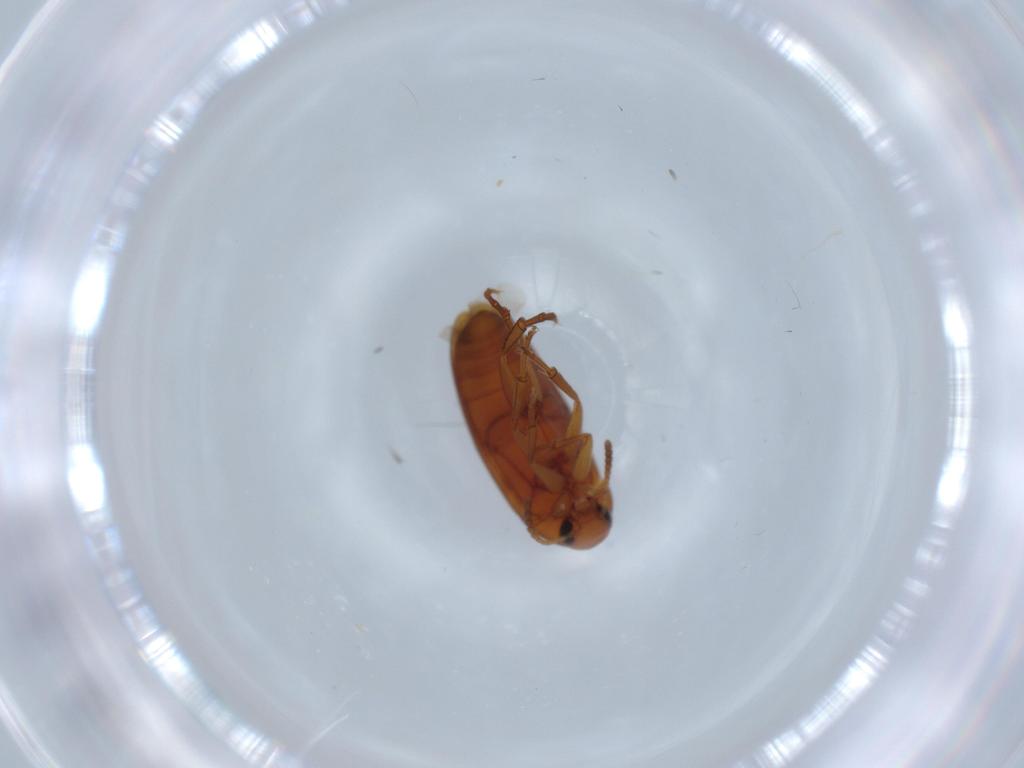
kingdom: Animalia
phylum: Arthropoda
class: Insecta
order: Coleoptera
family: Scraptiidae
